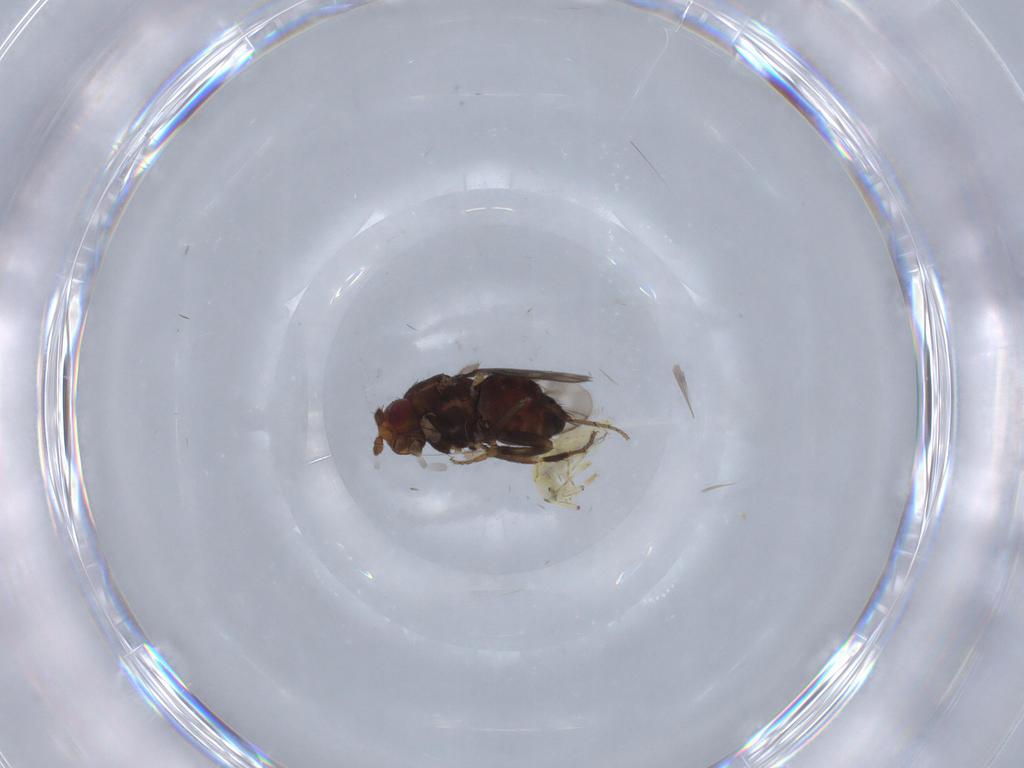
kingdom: Animalia
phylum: Arthropoda
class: Insecta
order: Diptera
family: Sphaeroceridae
